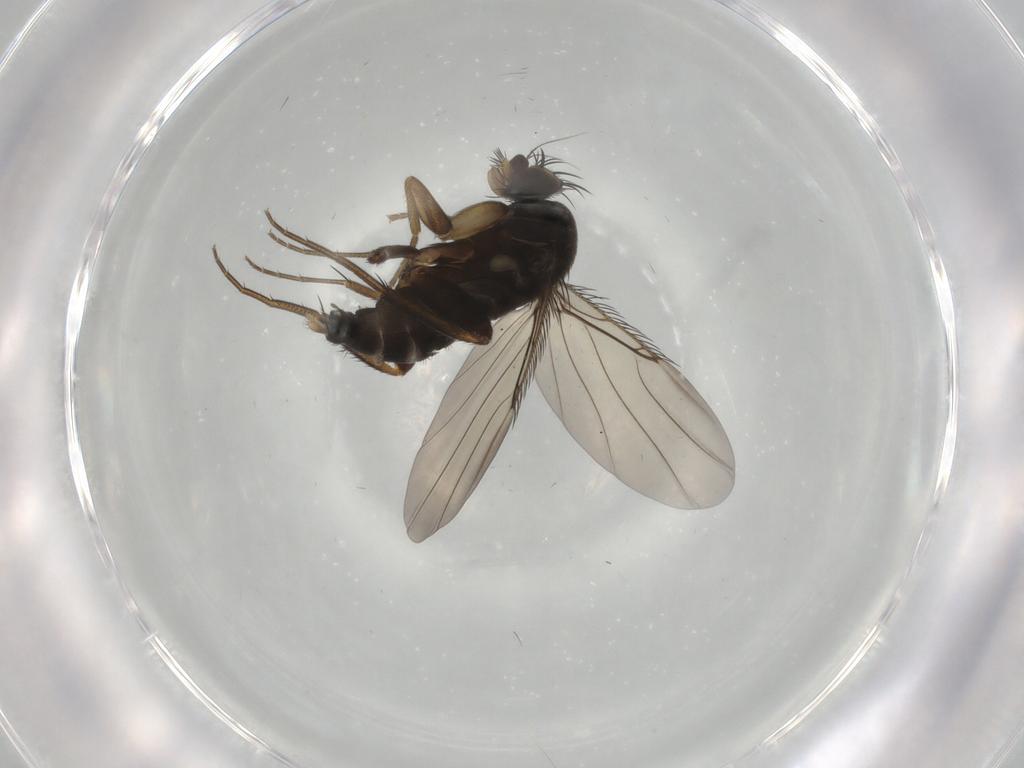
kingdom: Animalia
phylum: Arthropoda
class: Insecta
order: Diptera
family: Phoridae
